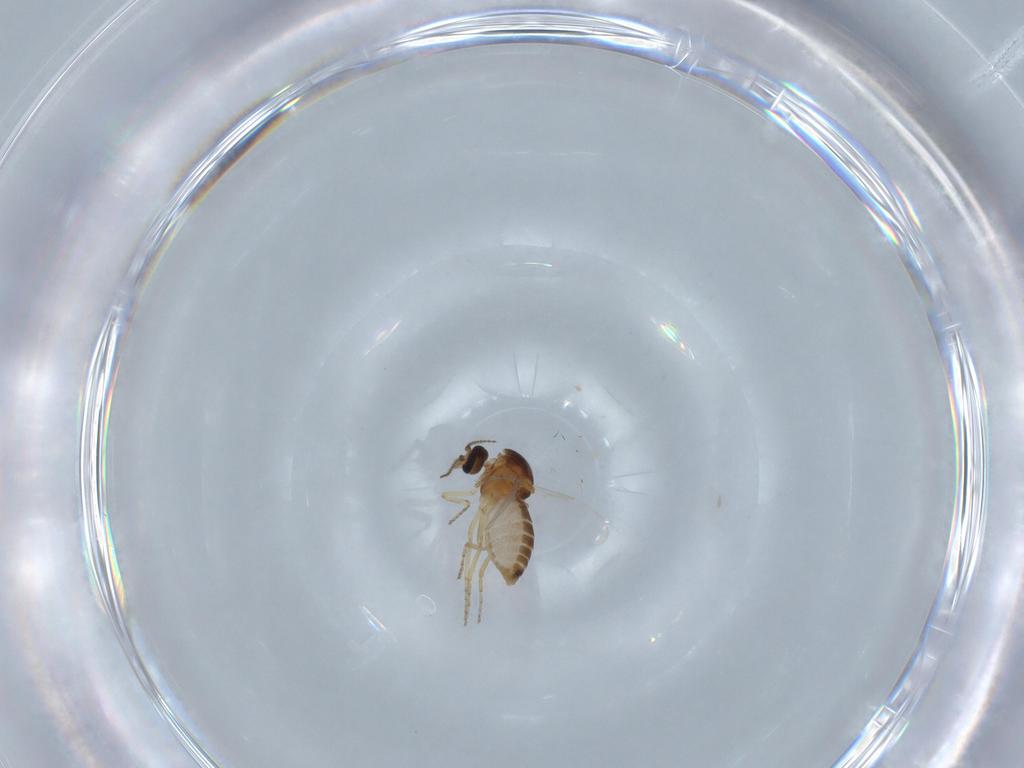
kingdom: Animalia
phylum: Arthropoda
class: Insecta
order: Diptera
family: Ceratopogonidae
